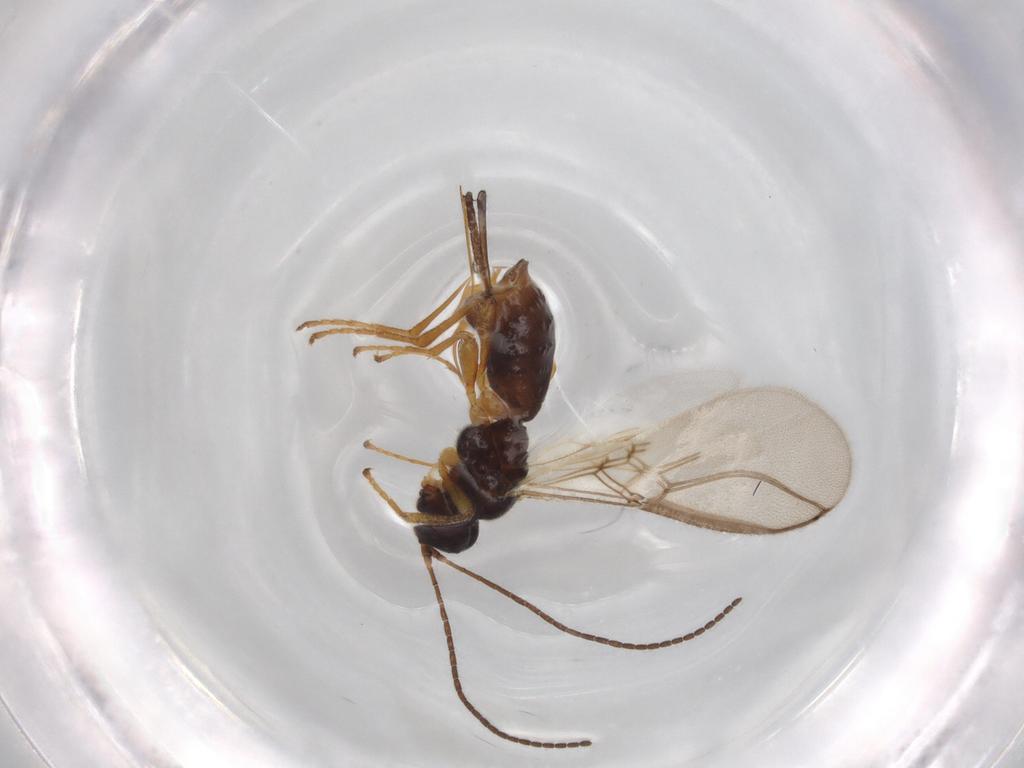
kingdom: Animalia
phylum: Arthropoda
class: Insecta
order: Hymenoptera
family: Braconidae
